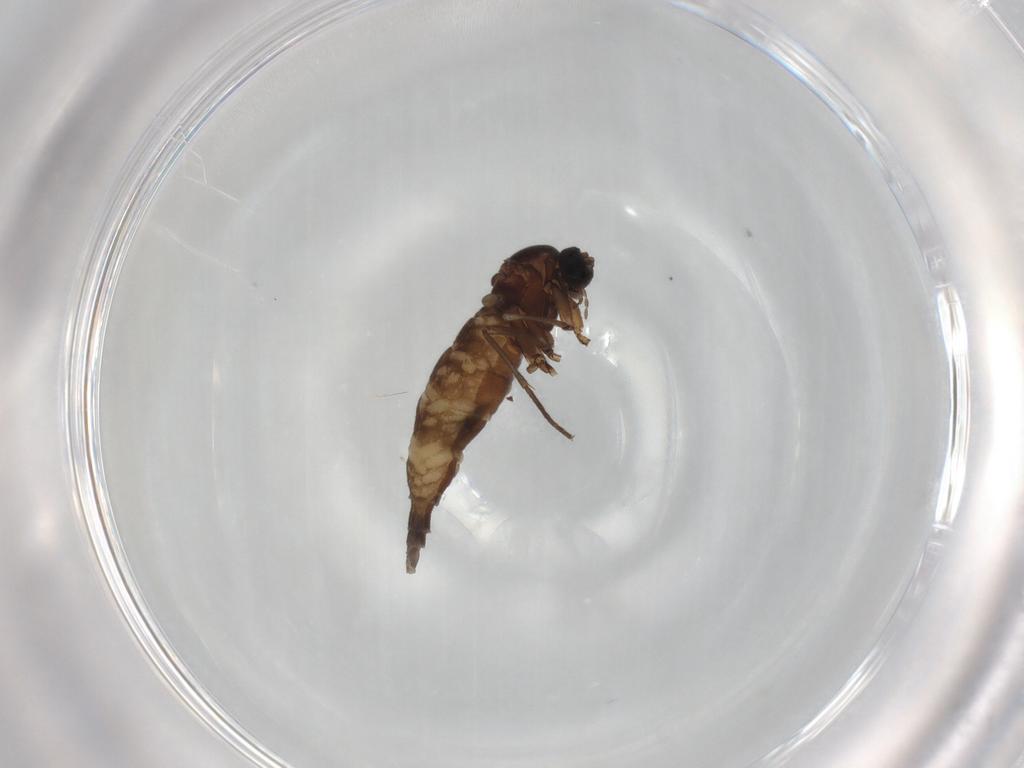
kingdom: Animalia
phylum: Arthropoda
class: Insecta
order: Diptera
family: Sciaridae
